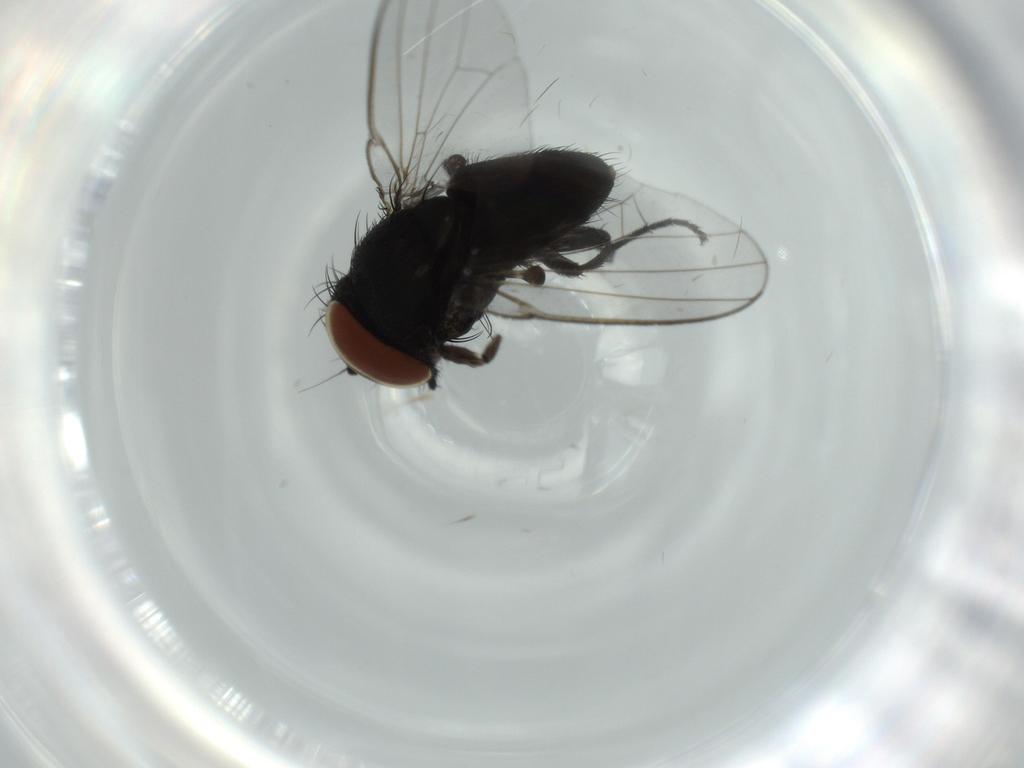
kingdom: Animalia
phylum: Arthropoda
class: Insecta
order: Diptera
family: Milichiidae
